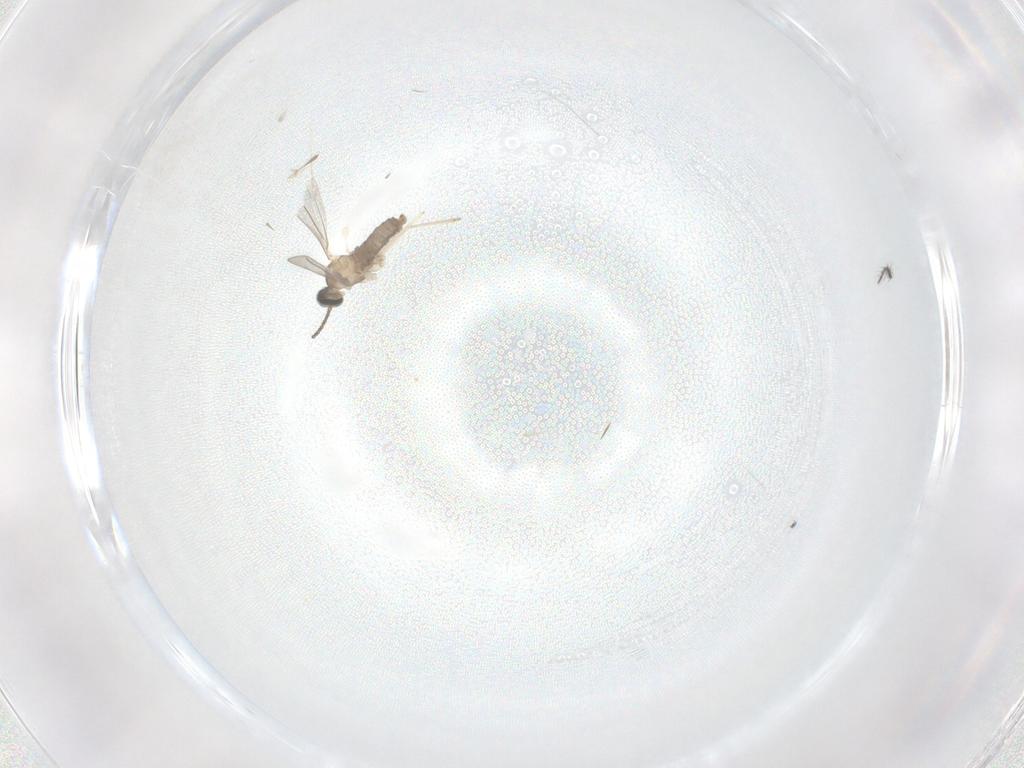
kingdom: Animalia
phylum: Arthropoda
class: Insecta
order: Diptera
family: Cecidomyiidae
